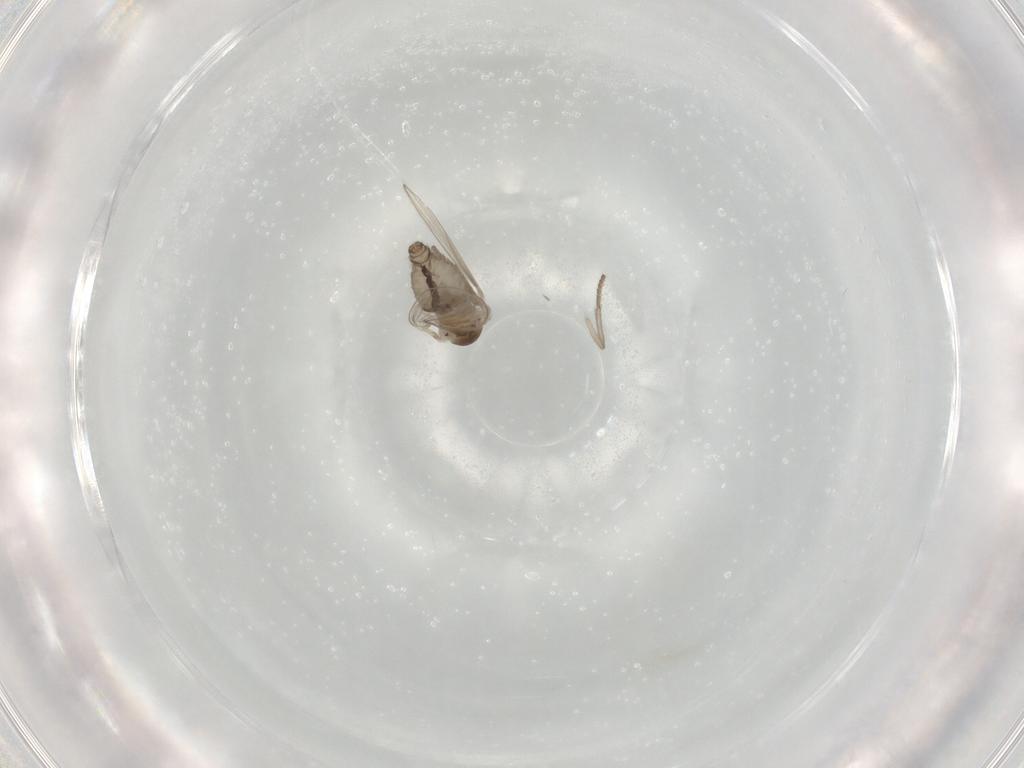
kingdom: Animalia
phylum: Arthropoda
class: Insecta
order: Diptera
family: Psychodidae
